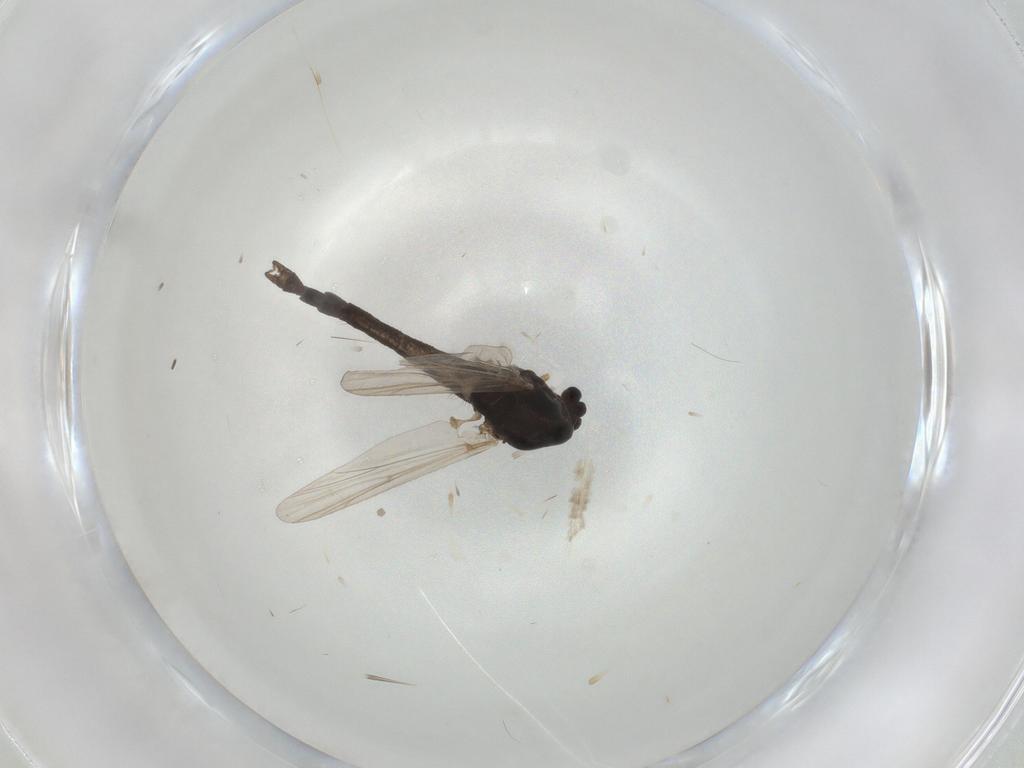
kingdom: Animalia
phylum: Arthropoda
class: Insecta
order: Diptera
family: Chironomidae
